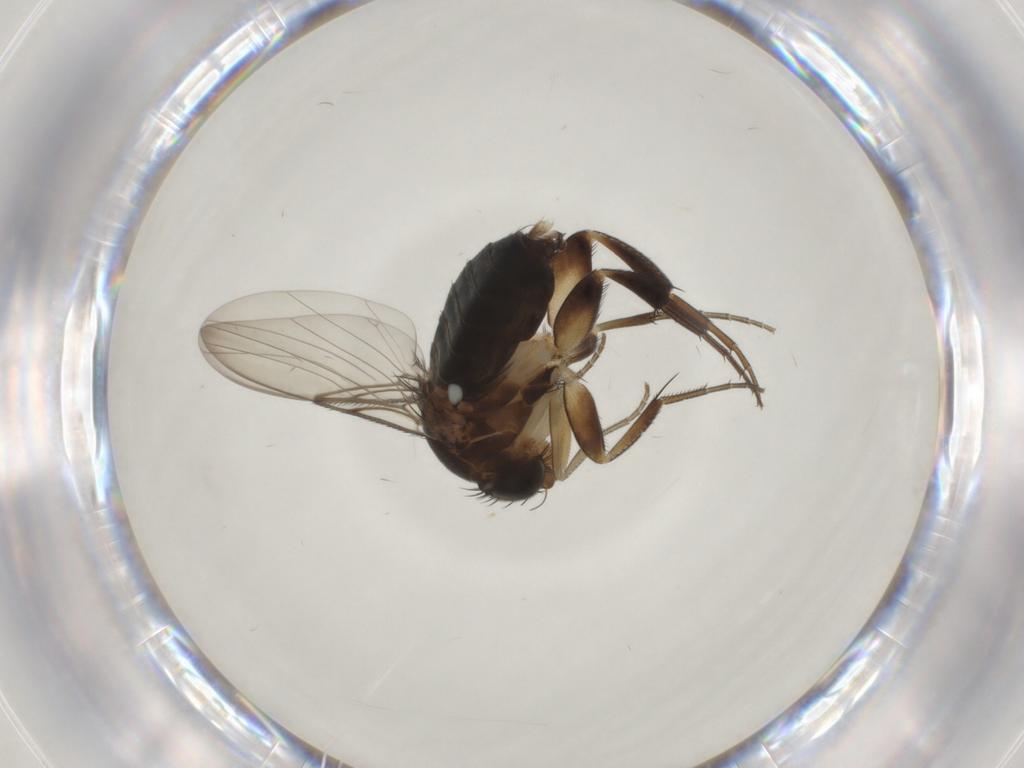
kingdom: Animalia
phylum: Arthropoda
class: Insecta
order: Diptera
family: Phoridae
